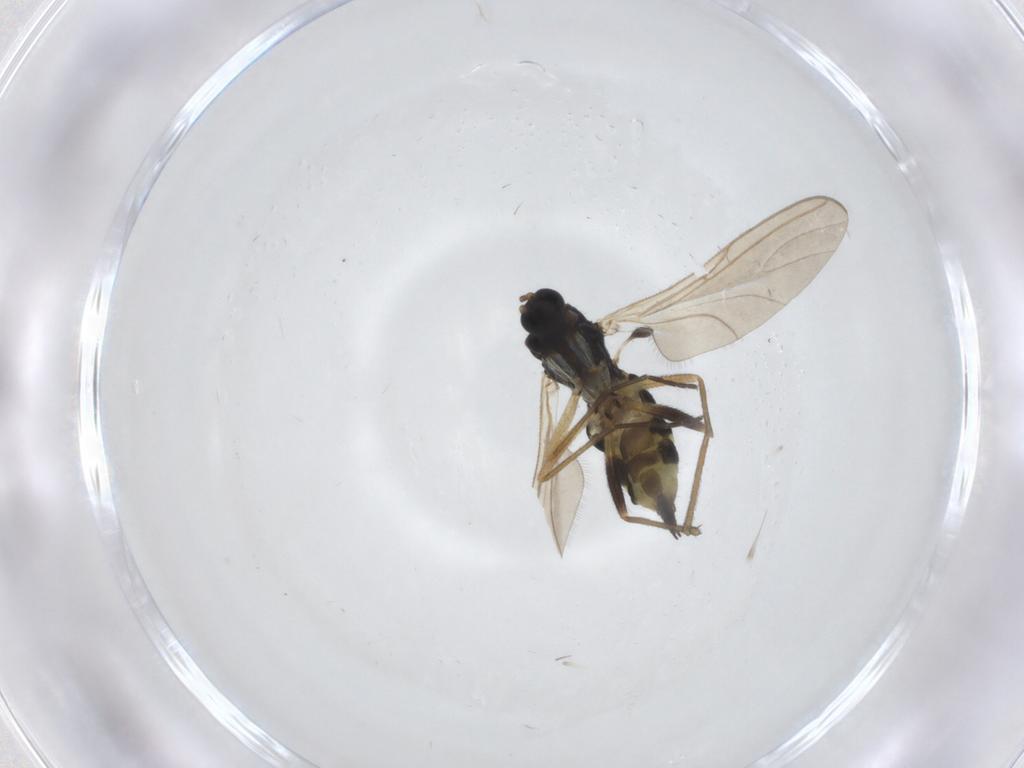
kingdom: Animalia
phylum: Arthropoda
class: Insecta
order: Diptera
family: Sciaridae
